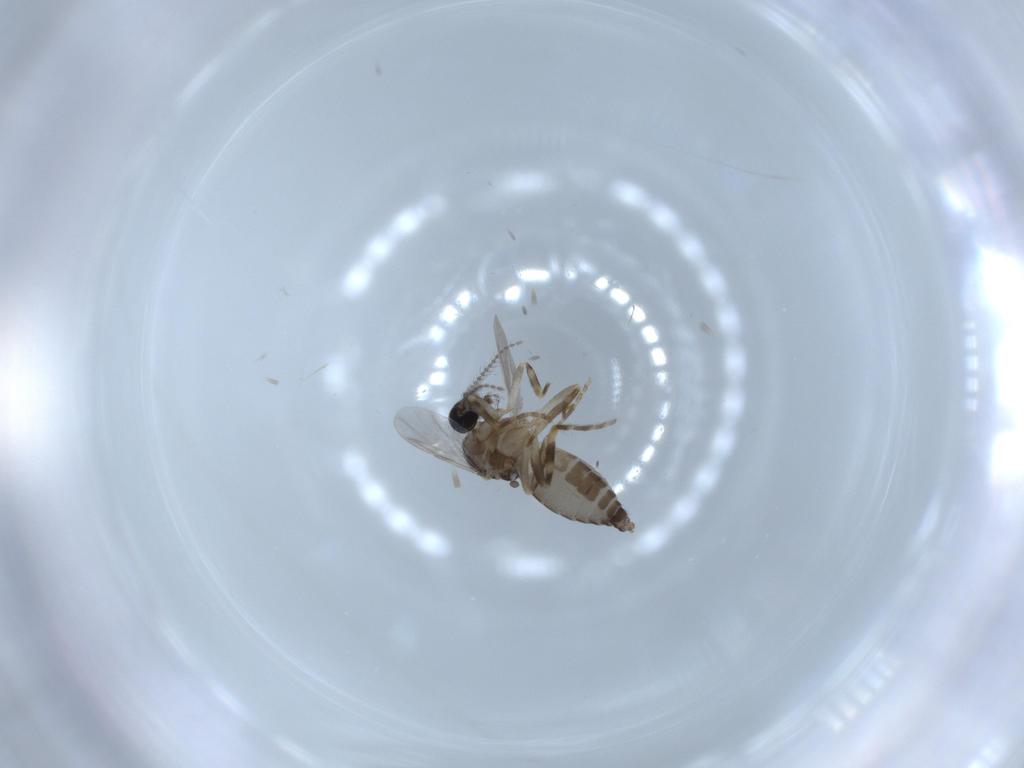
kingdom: Animalia
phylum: Arthropoda
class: Insecta
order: Diptera
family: Ceratopogonidae
